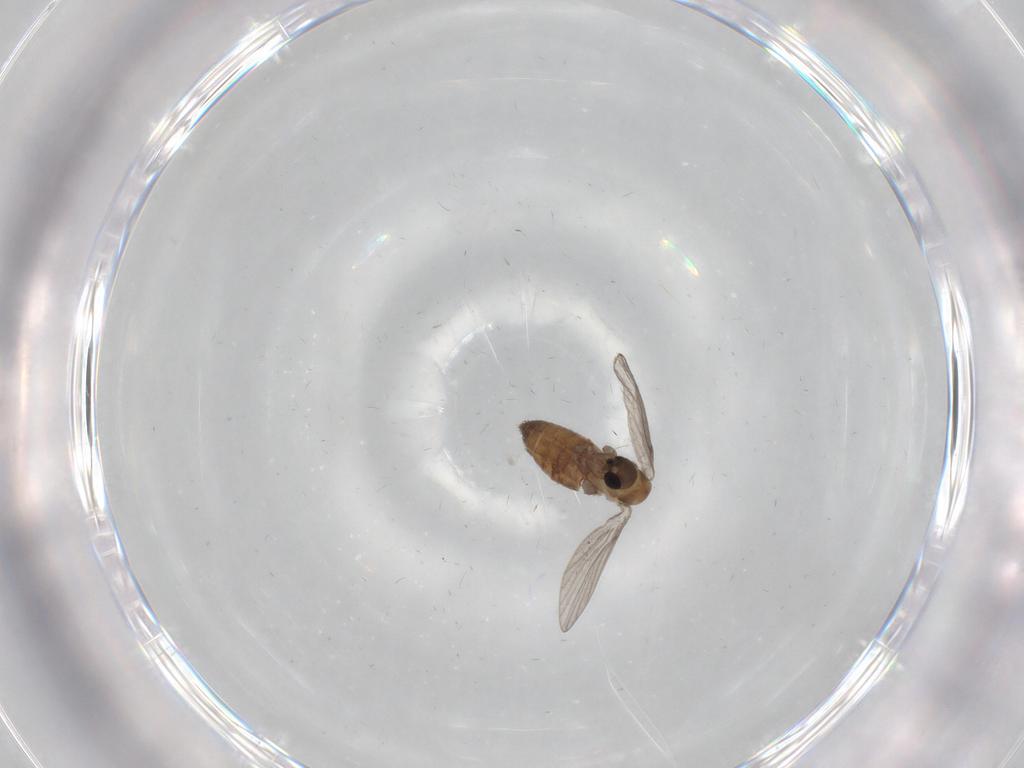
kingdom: Animalia
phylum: Arthropoda
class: Insecta
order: Diptera
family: Psychodidae
